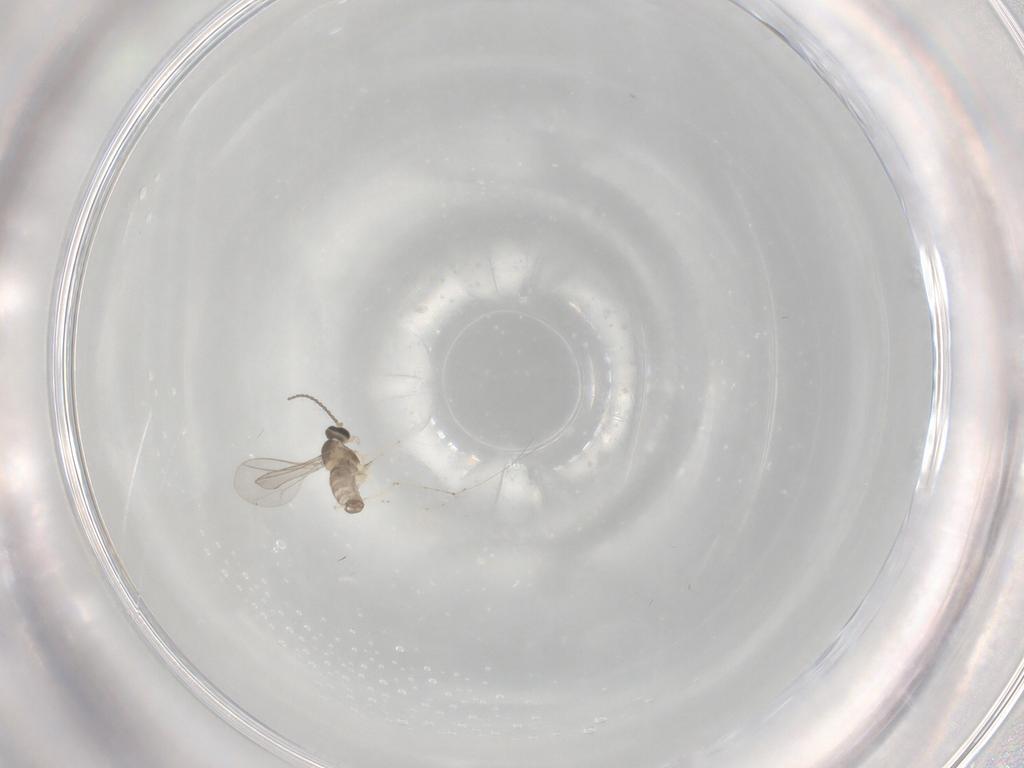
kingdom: Animalia
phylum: Arthropoda
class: Insecta
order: Diptera
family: Cecidomyiidae
